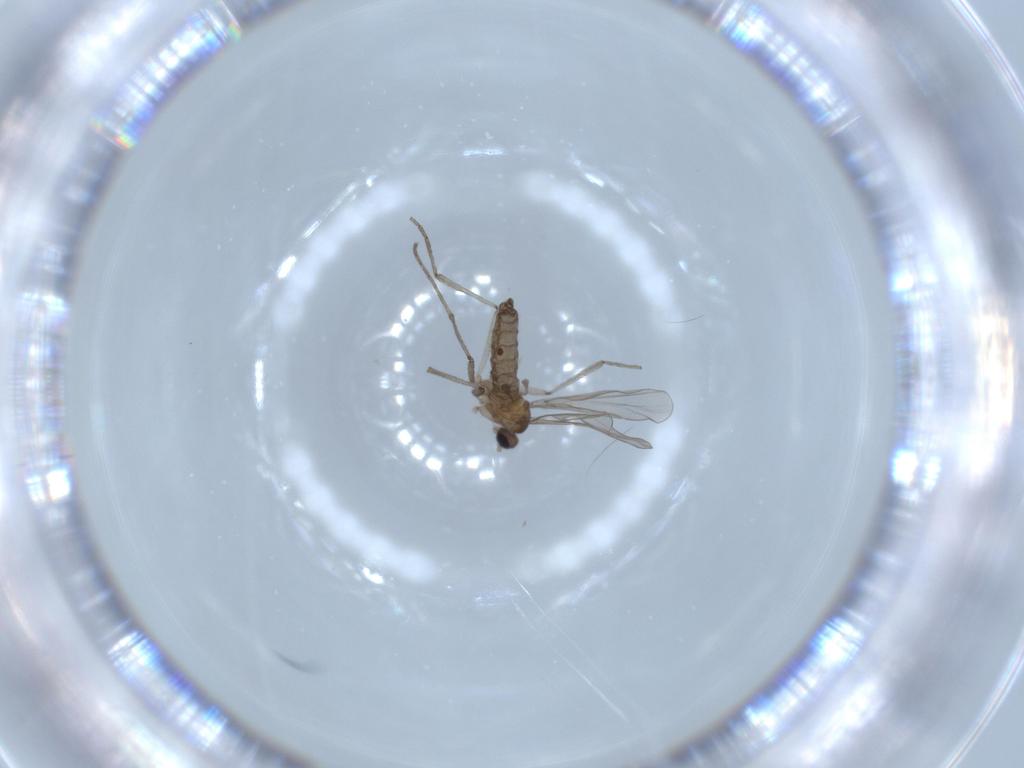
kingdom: Animalia
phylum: Arthropoda
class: Insecta
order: Diptera
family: Cecidomyiidae
